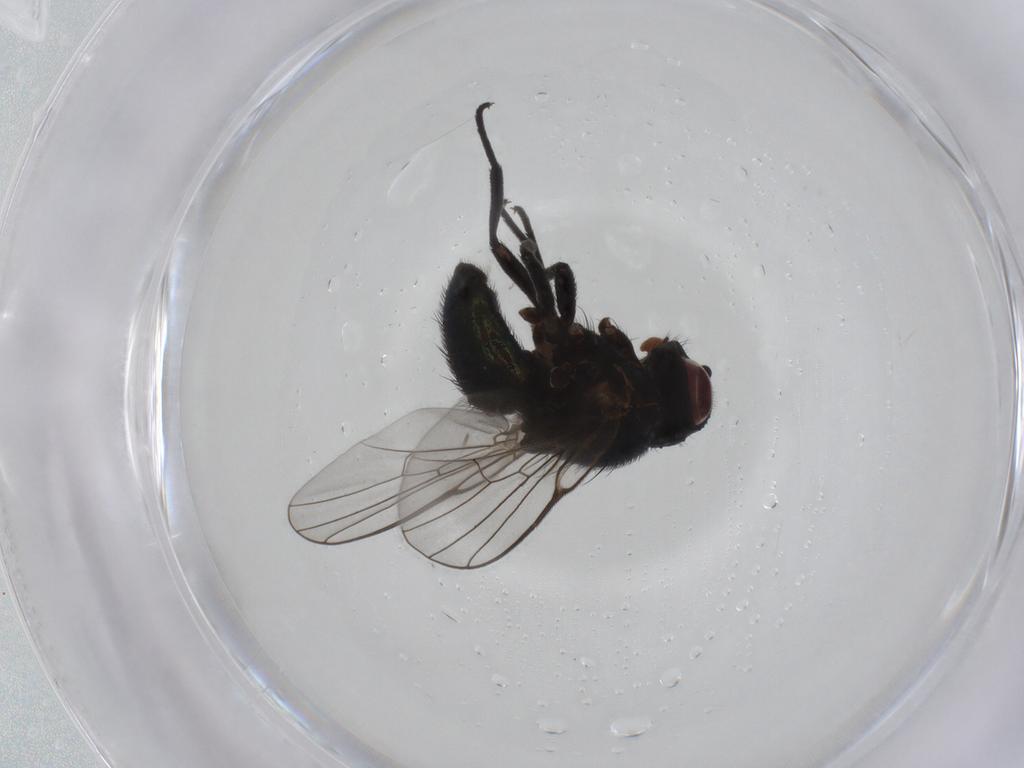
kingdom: Animalia
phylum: Arthropoda
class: Insecta
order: Diptera
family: Agromyzidae
